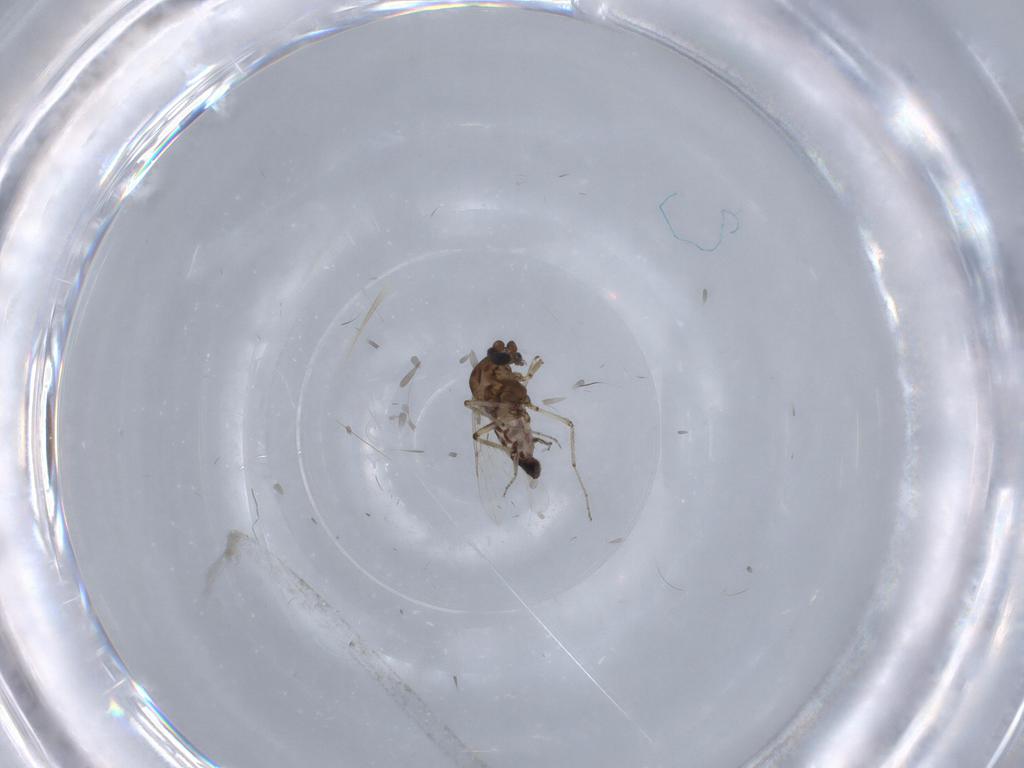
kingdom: Animalia
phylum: Arthropoda
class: Insecta
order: Diptera
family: Ceratopogonidae
